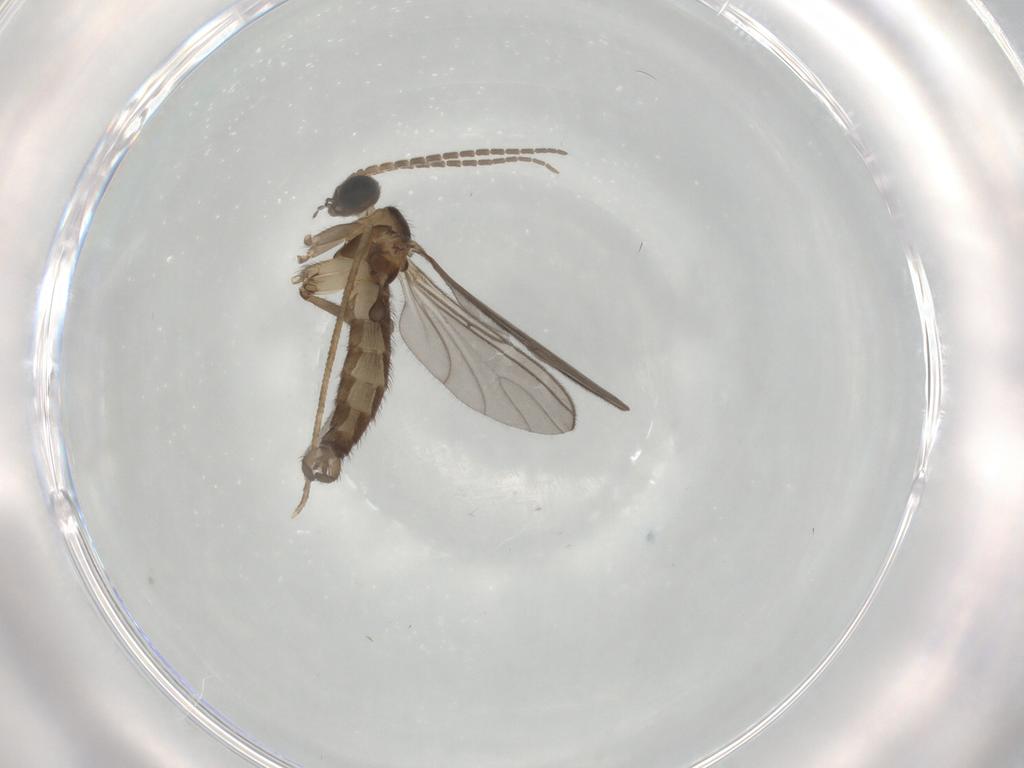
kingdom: Animalia
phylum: Arthropoda
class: Insecta
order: Diptera
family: Sciaridae
